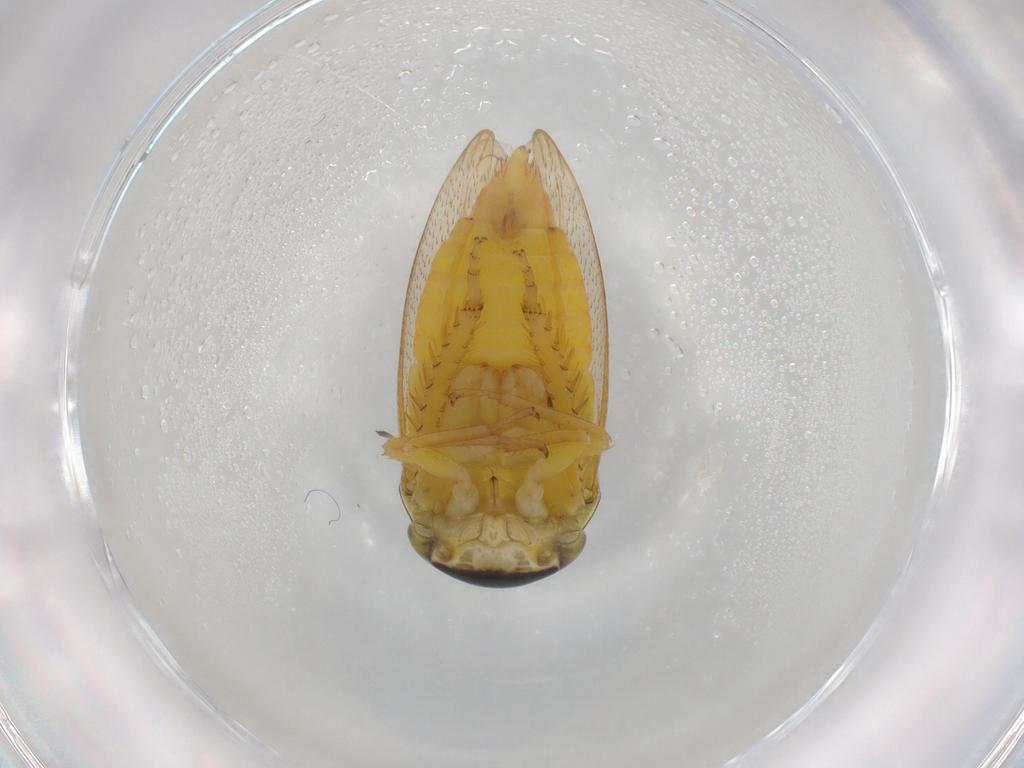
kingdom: Animalia
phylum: Arthropoda
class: Insecta
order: Hemiptera
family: Cicadellidae
